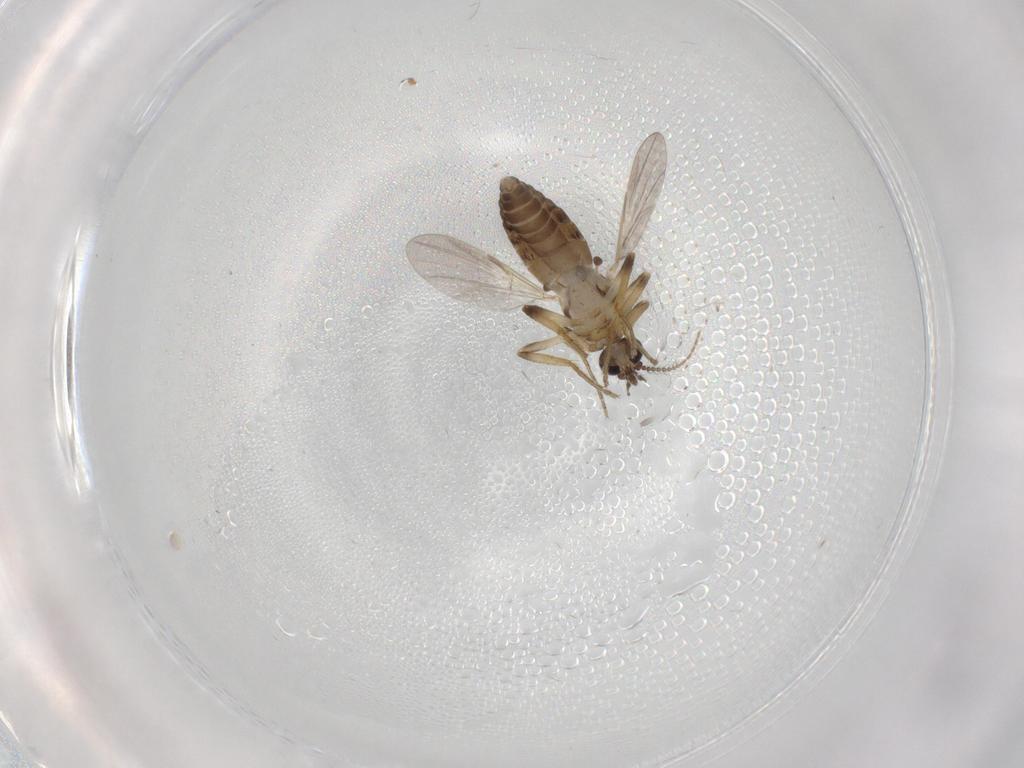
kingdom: Animalia
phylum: Arthropoda
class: Insecta
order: Diptera
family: Ceratopogonidae
